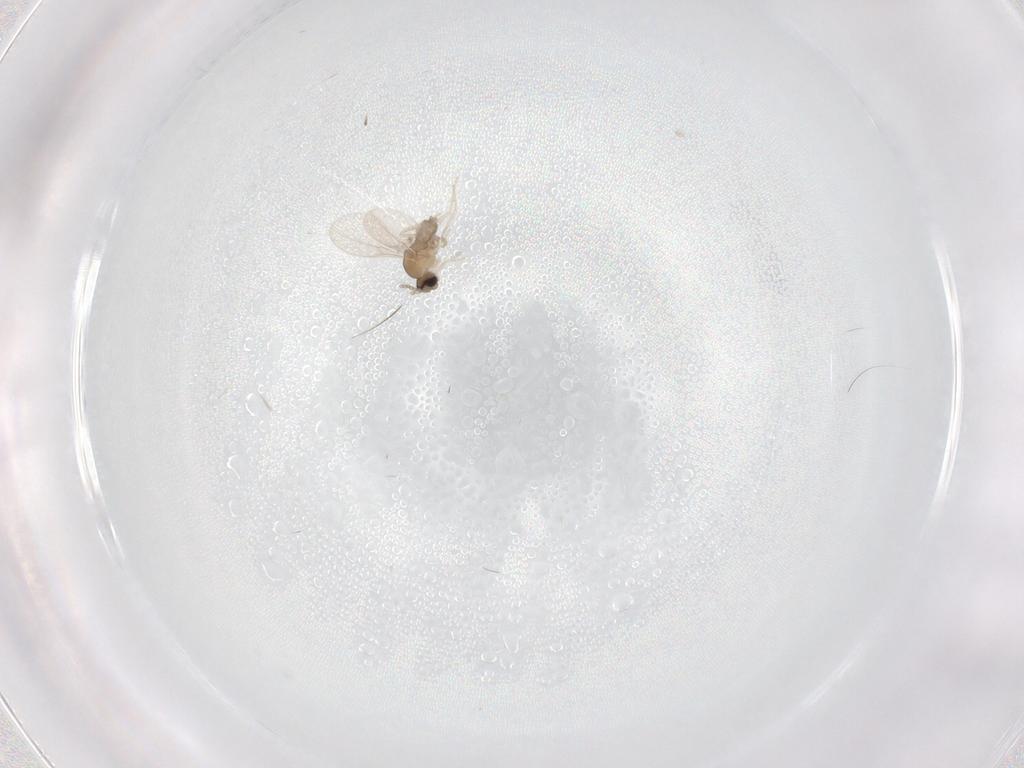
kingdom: Animalia
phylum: Arthropoda
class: Insecta
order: Diptera
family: Cecidomyiidae
